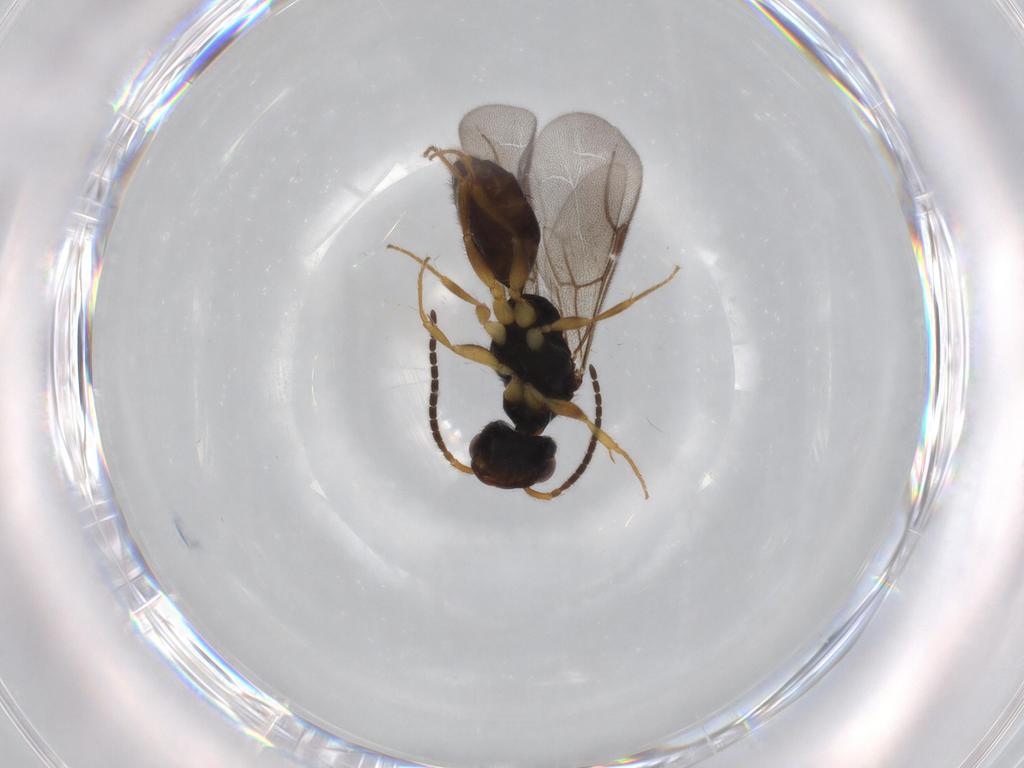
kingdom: Animalia
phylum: Arthropoda
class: Insecta
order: Hymenoptera
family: Bethylidae
